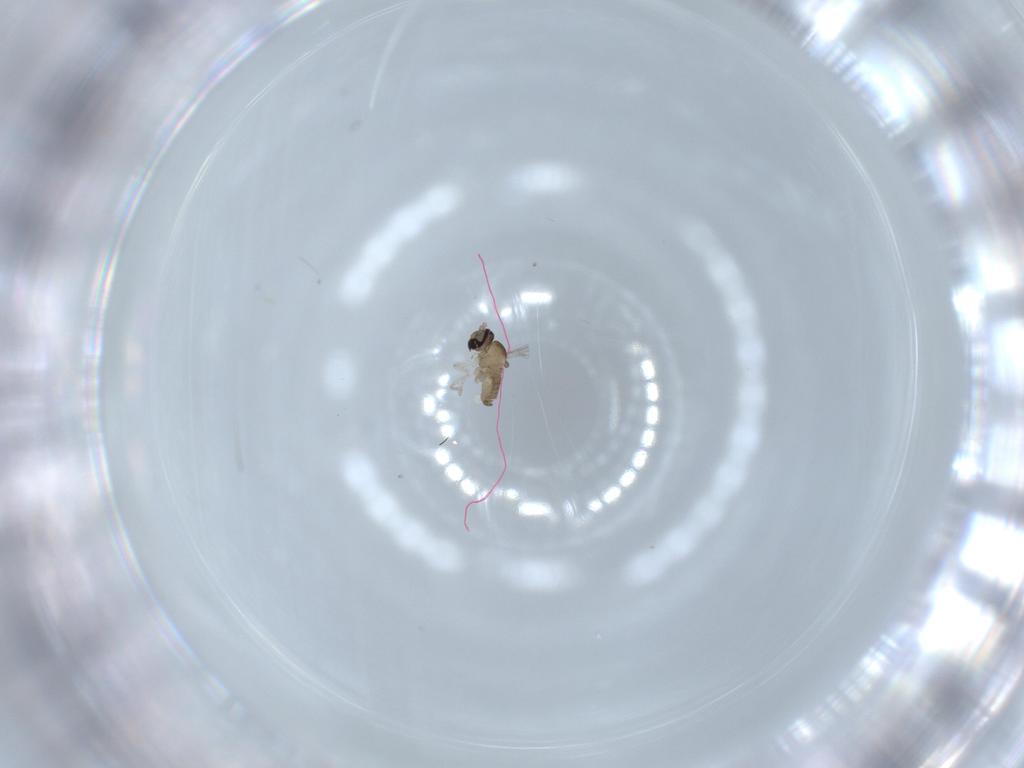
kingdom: Animalia
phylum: Arthropoda
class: Insecta
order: Diptera
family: Cecidomyiidae
